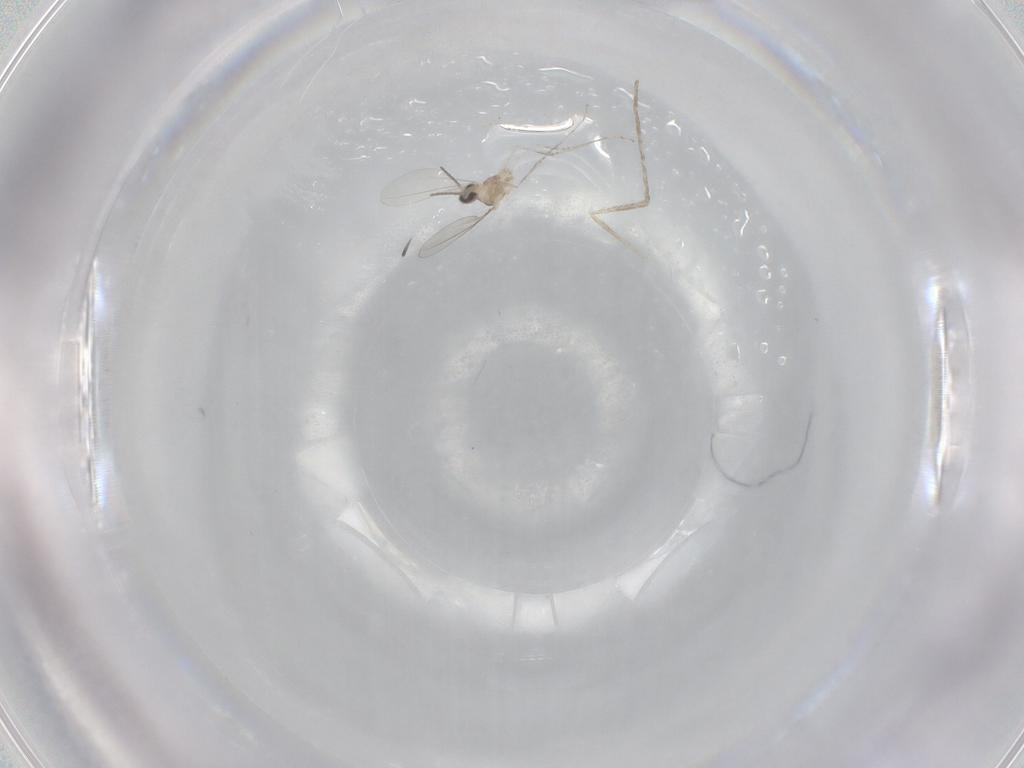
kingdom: Animalia
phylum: Arthropoda
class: Insecta
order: Diptera
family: Cecidomyiidae
